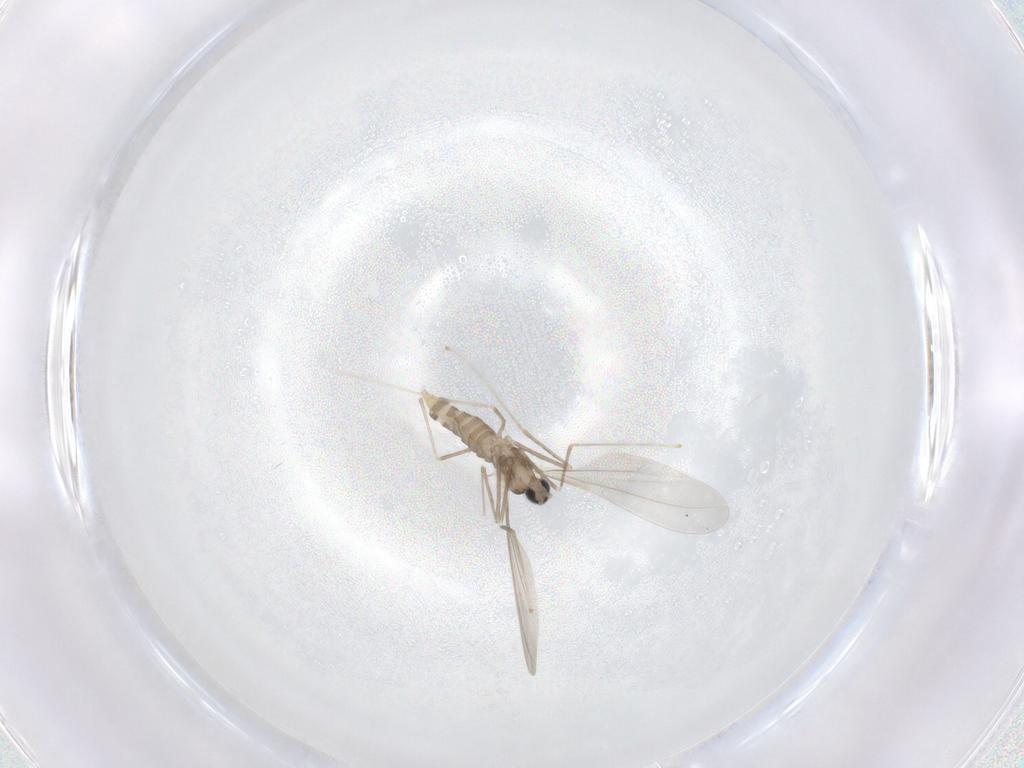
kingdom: Animalia
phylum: Arthropoda
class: Insecta
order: Diptera
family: Cecidomyiidae
